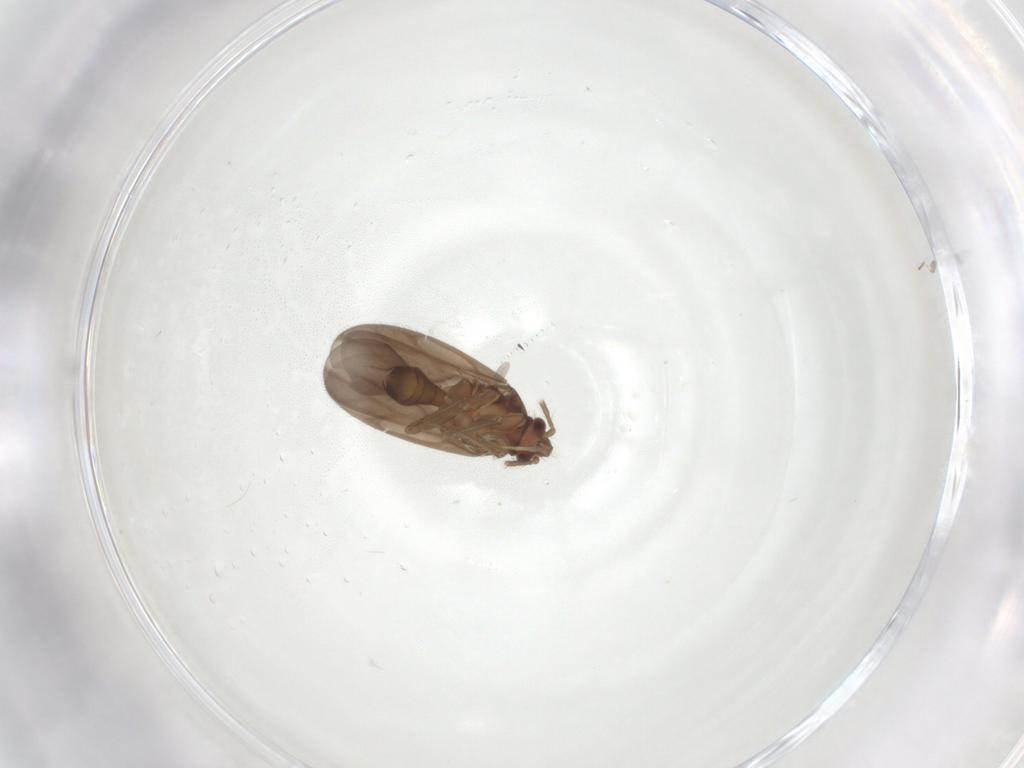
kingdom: Animalia
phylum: Arthropoda
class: Insecta
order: Hemiptera
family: Ceratocombidae
